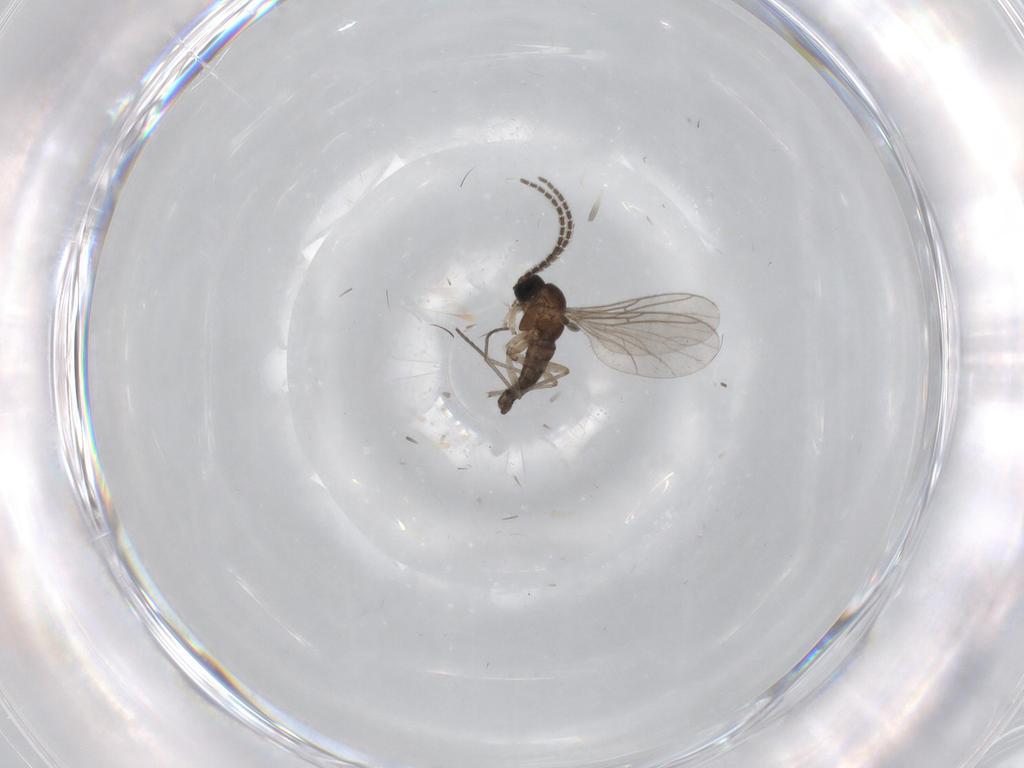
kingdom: Animalia
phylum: Arthropoda
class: Insecta
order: Diptera
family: Sciaridae
